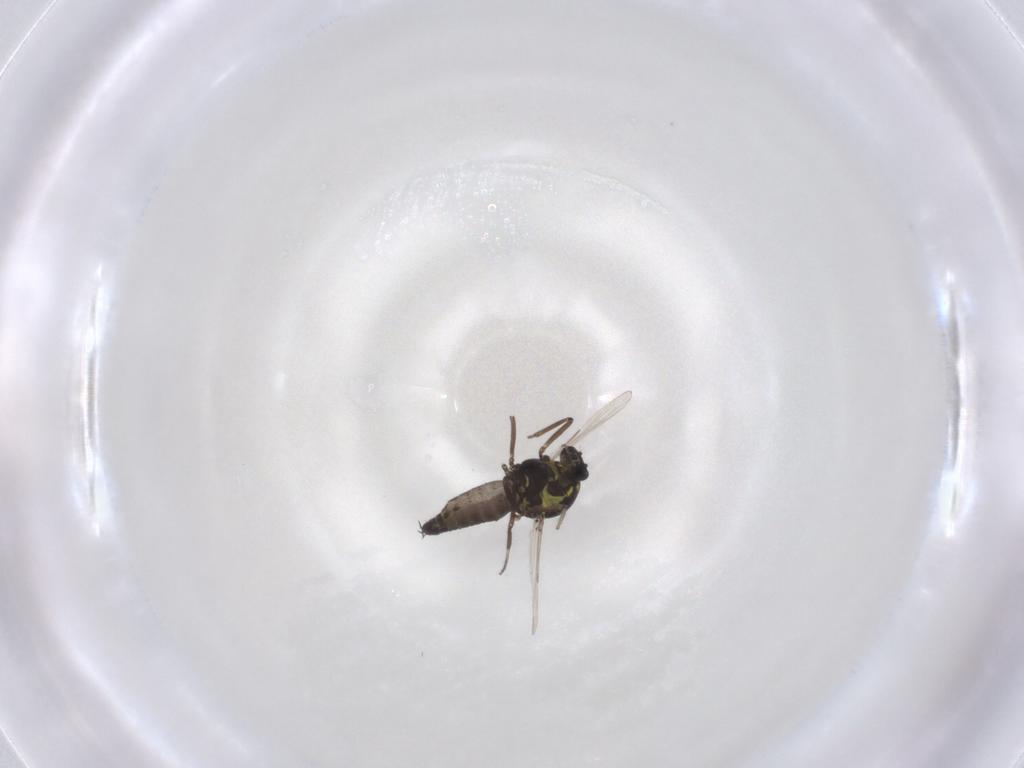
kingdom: Animalia
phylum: Arthropoda
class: Insecta
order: Diptera
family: Ceratopogonidae
